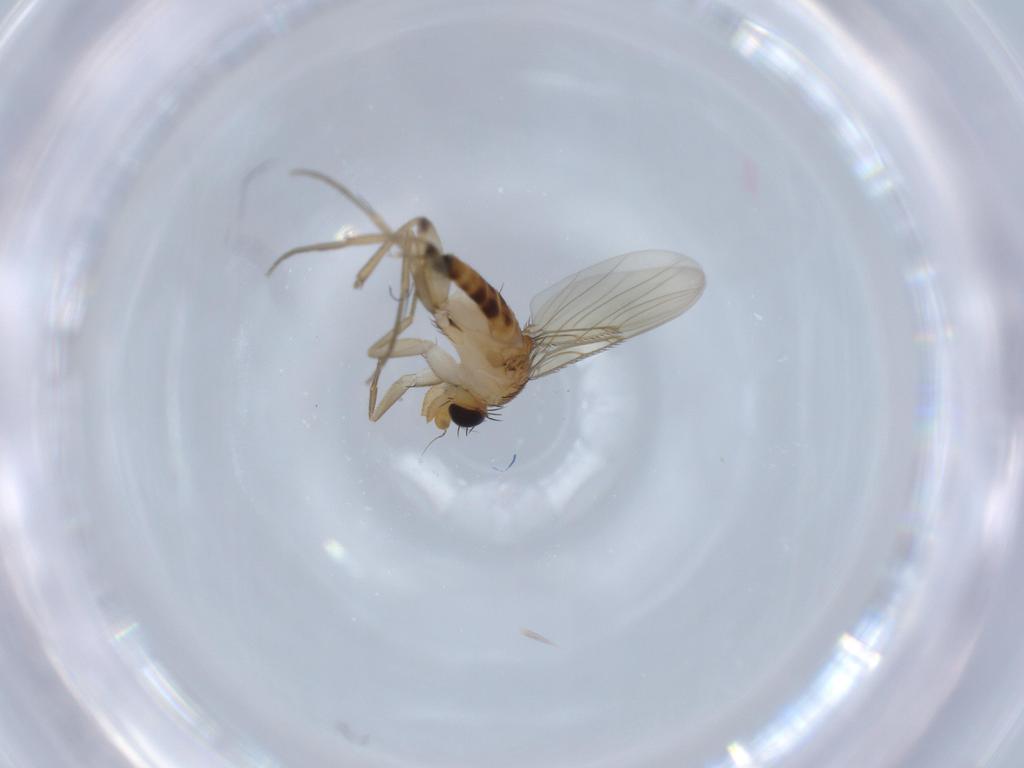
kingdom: Animalia
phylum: Arthropoda
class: Insecta
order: Diptera
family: Phoridae
